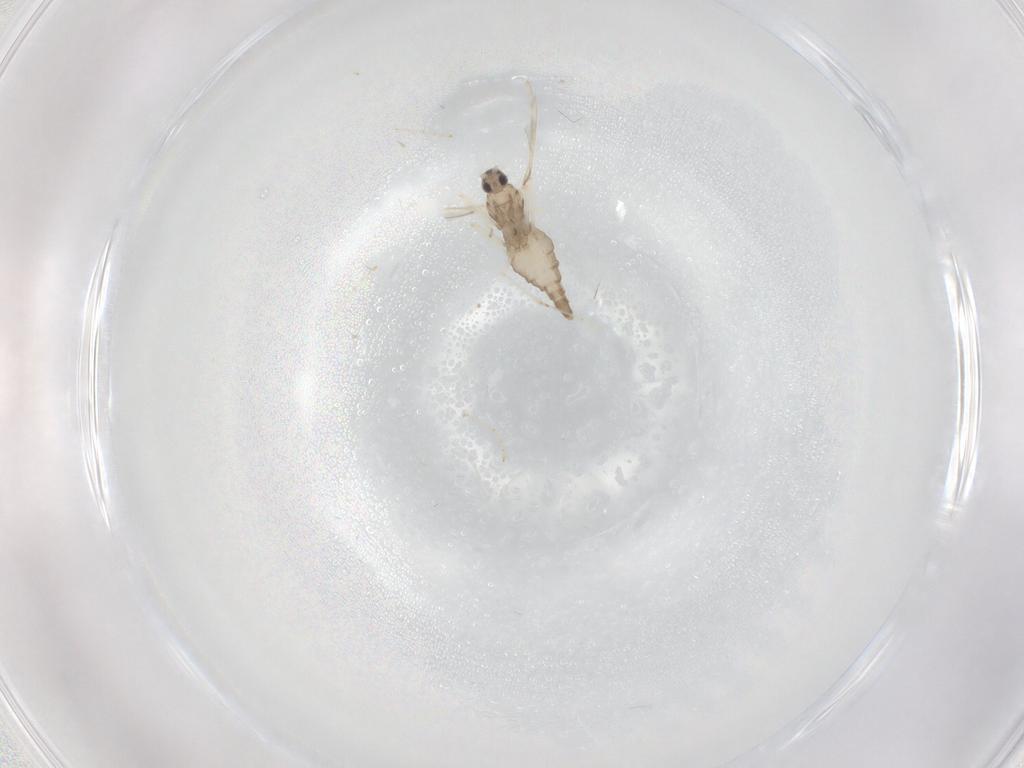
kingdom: Animalia
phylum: Arthropoda
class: Insecta
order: Diptera
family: Cecidomyiidae
